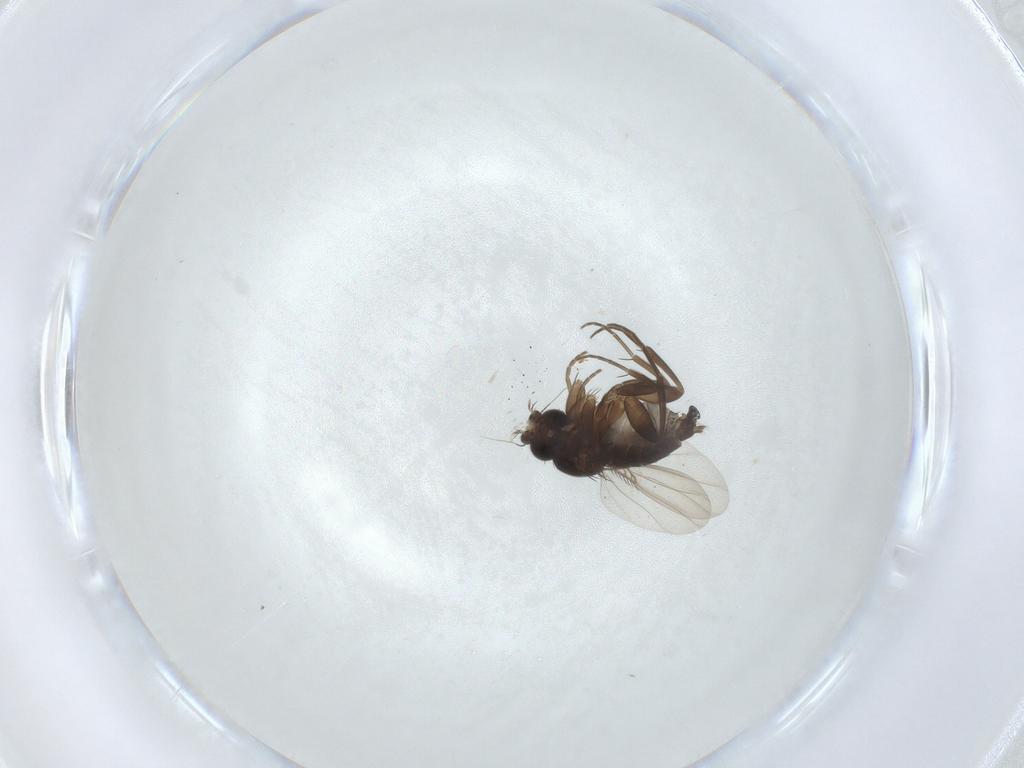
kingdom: Animalia
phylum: Arthropoda
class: Insecta
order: Diptera
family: Phoridae
